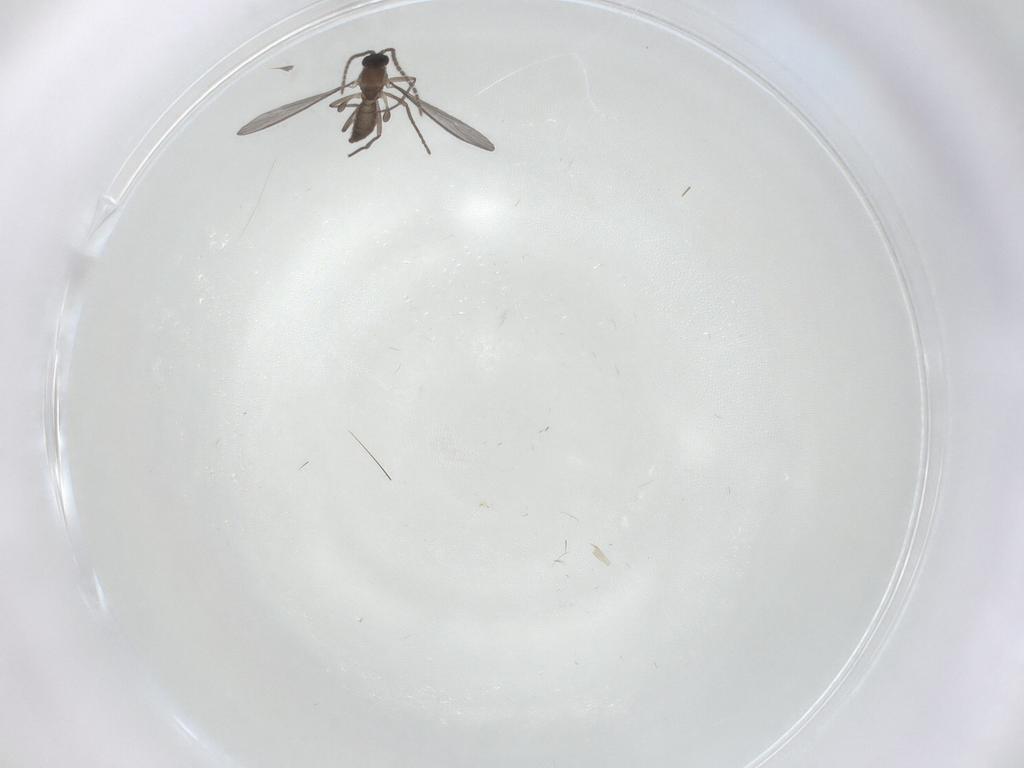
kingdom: Animalia
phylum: Arthropoda
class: Insecta
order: Diptera
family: Sciaridae
